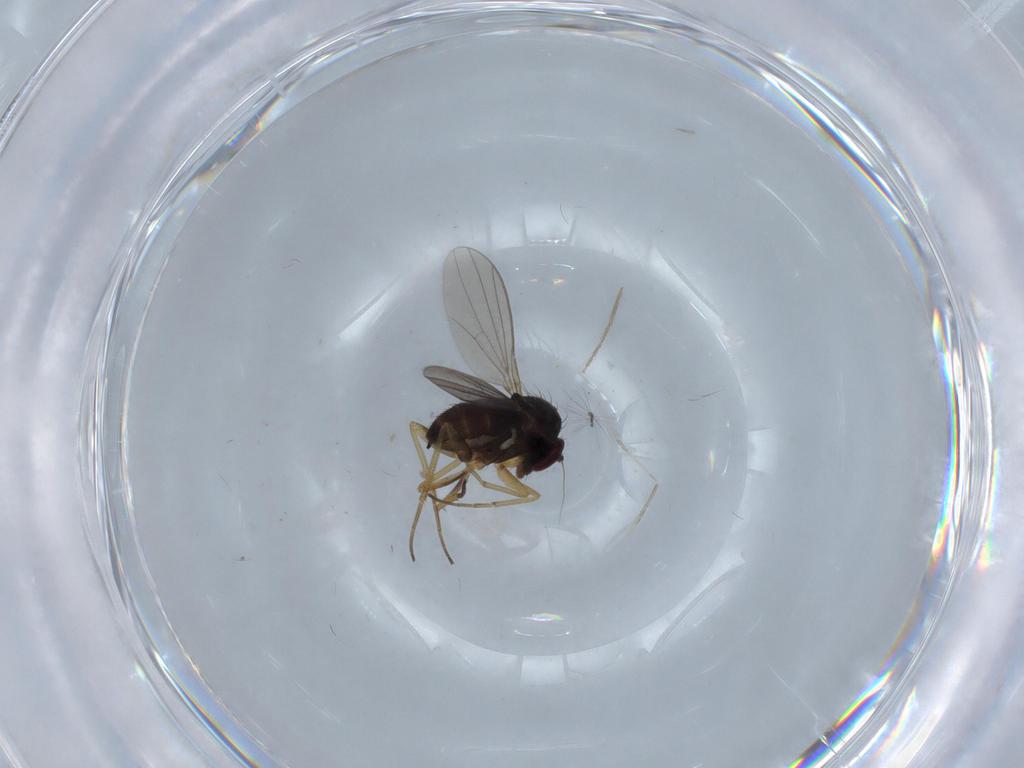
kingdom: Animalia
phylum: Arthropoda
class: Insecta
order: Diptera
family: Dolichopodidae
